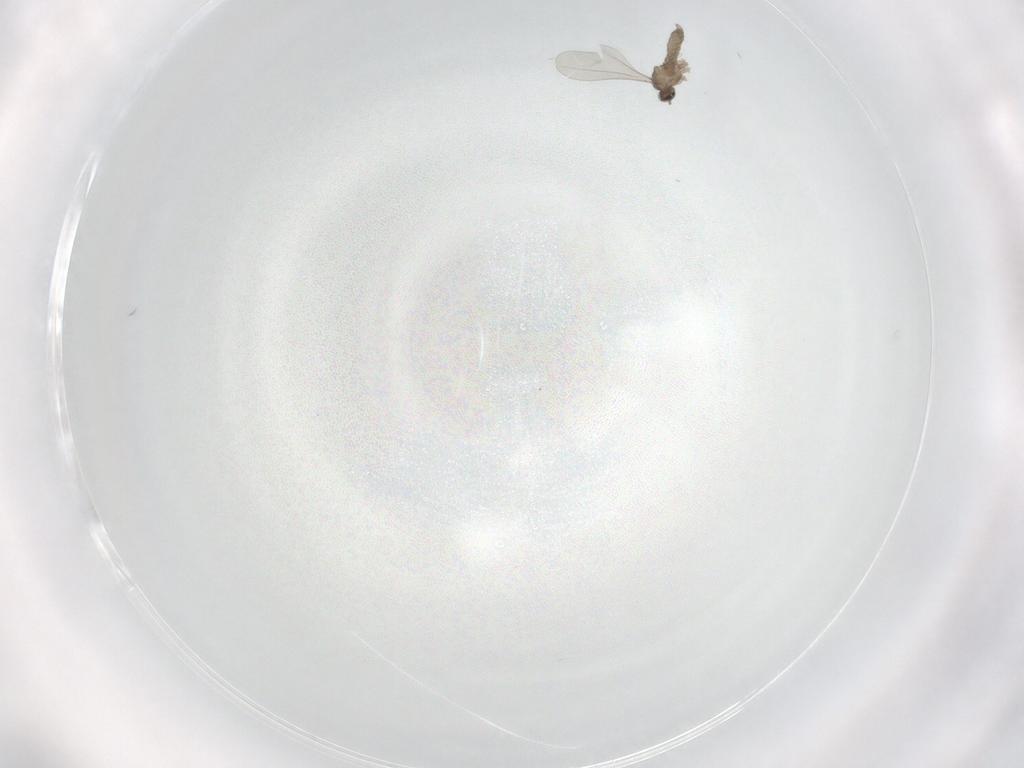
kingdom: Animalia
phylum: Arthropoda
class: Insecta
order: Diptera
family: Cecidomyiidae
